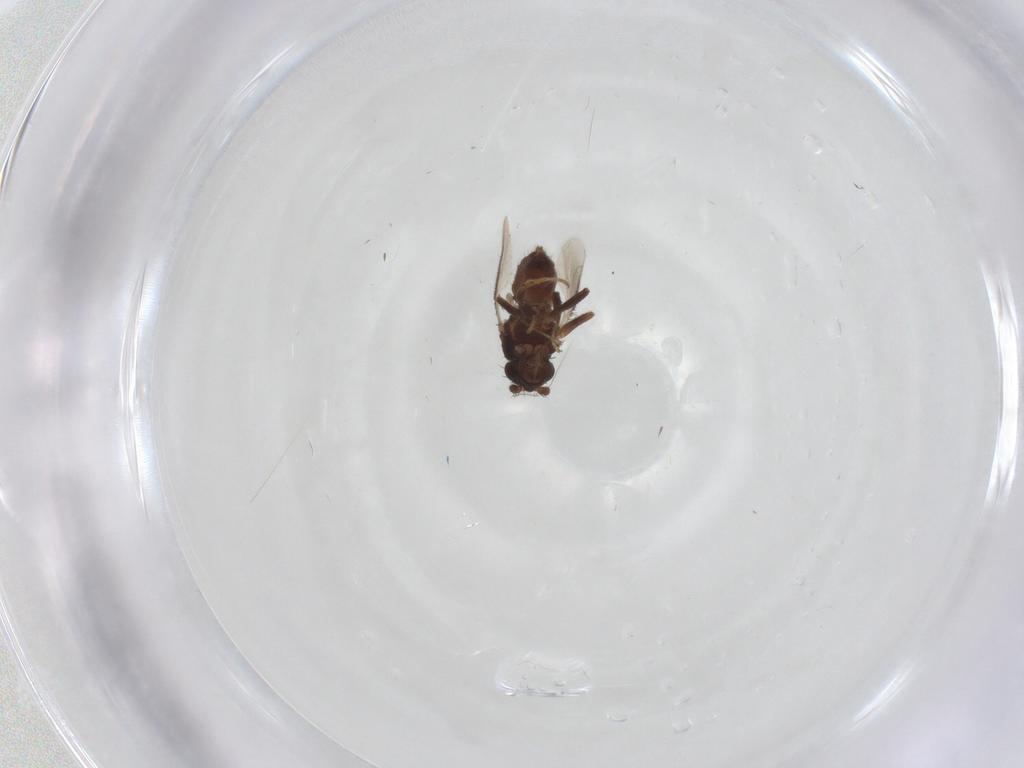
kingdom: Animalia
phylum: Arthropoda
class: Insecta
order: Diptera
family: Sphaeroceridae
